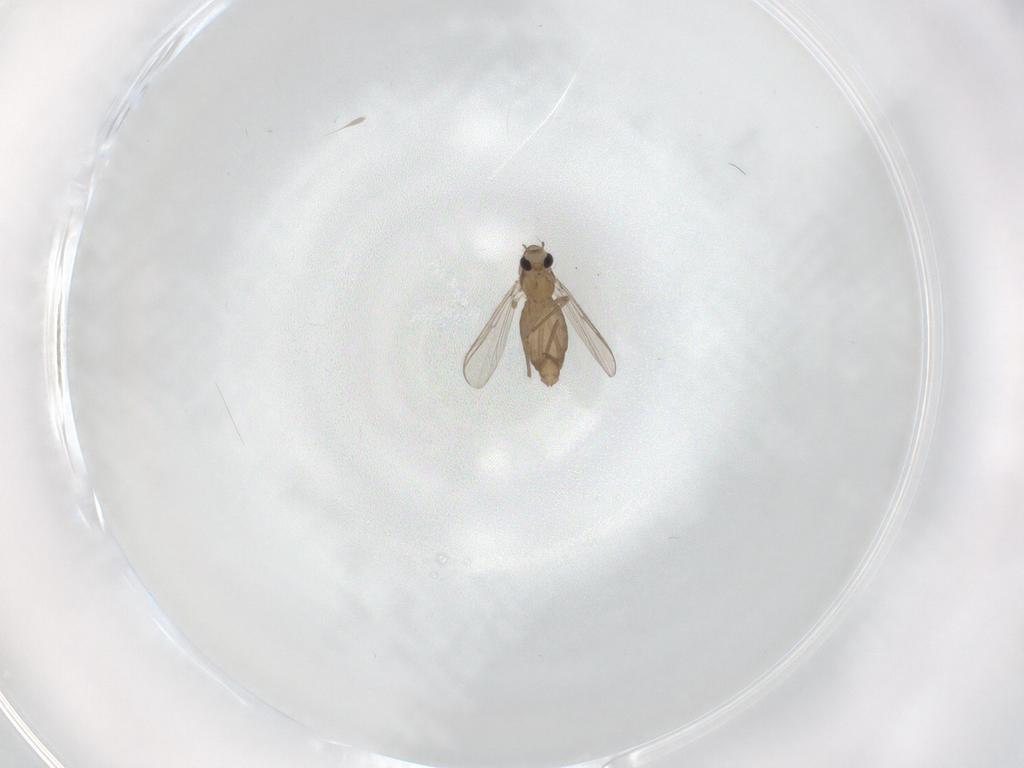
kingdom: Animalia
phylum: Arthropoda
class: Insecta
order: Diptera
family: Chironomidae
